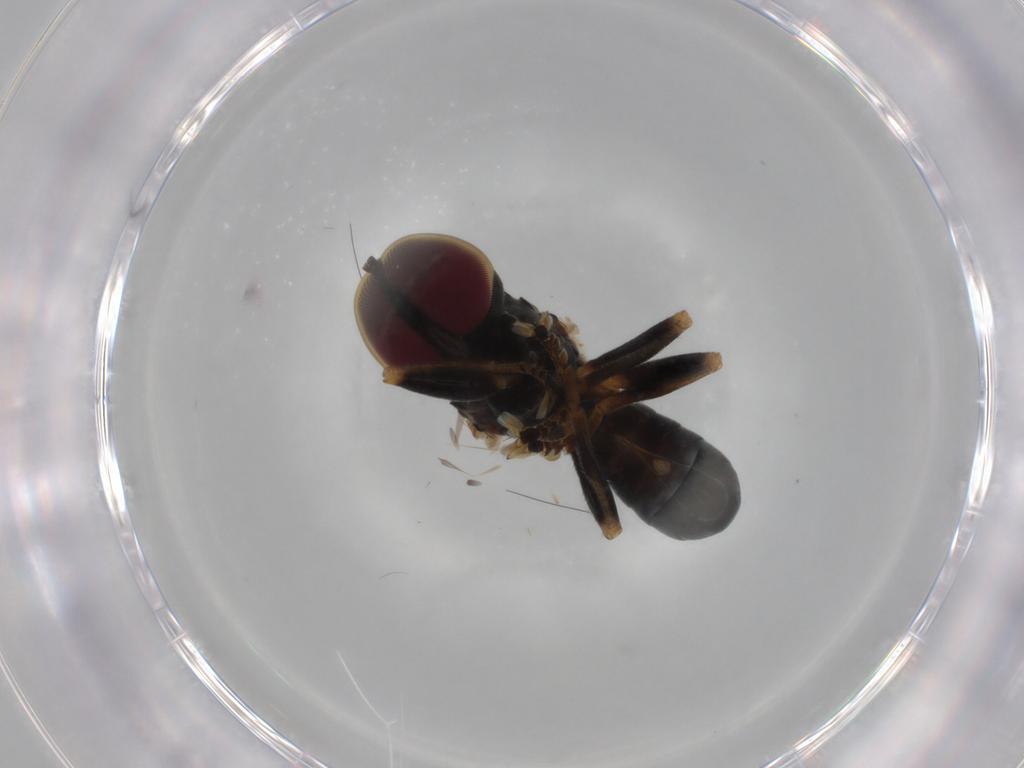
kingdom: Animalia
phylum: Arthropoda
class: Insecta
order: Diptera
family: Pipunculidae
